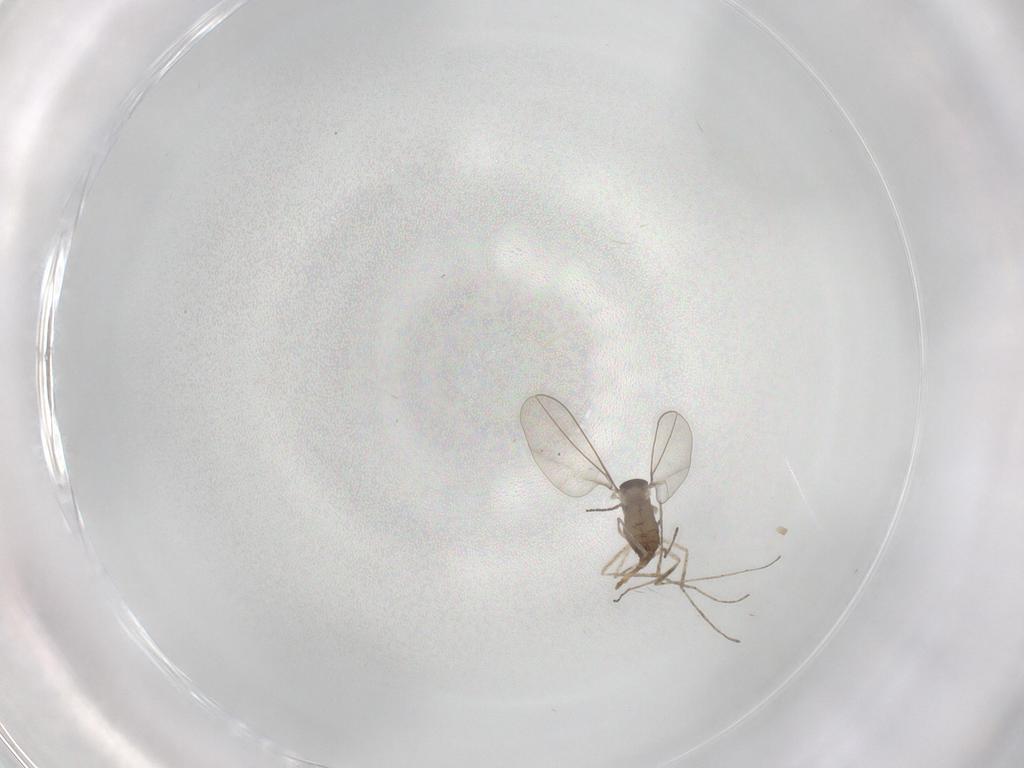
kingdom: Animalia
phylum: Arthropoda
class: Insecta
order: Diptera
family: Cecidomyiidae
